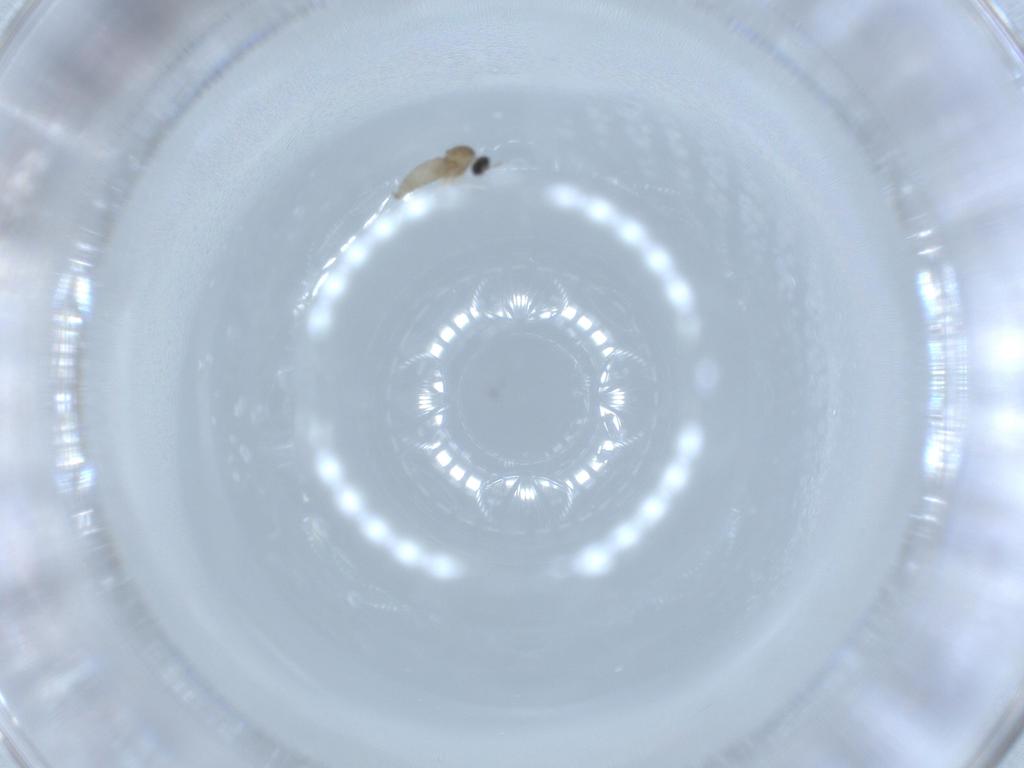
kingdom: Animalia
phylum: Arthropoda
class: Insecta
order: Diptera
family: Cecidomyiidae
